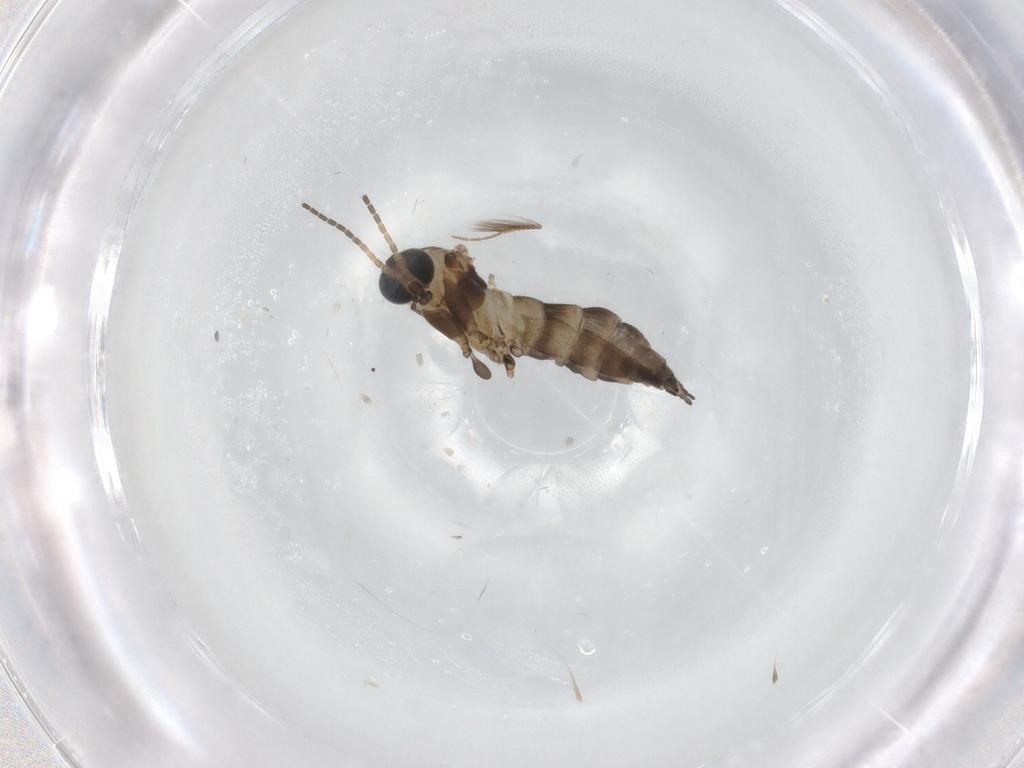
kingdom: Animalia
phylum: Arthropoda
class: Insecta
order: Diptera
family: Sciaridae
